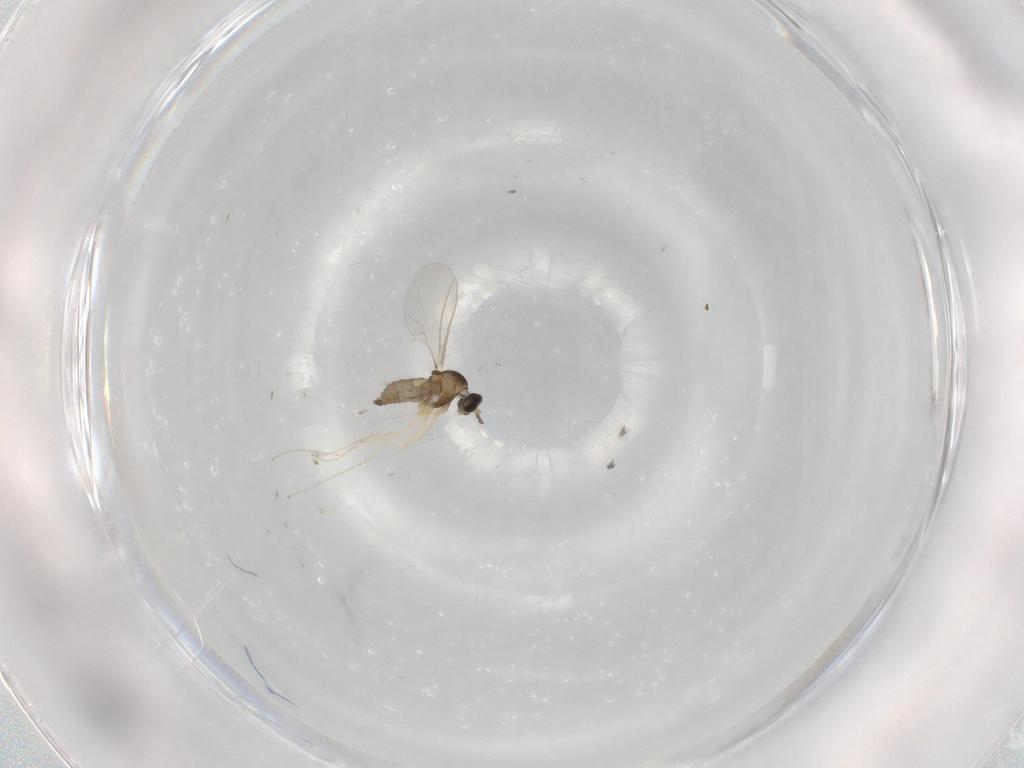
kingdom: Animalia
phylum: Arthropoda
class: Insecta
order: Diptera
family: Cecidomyiidae
